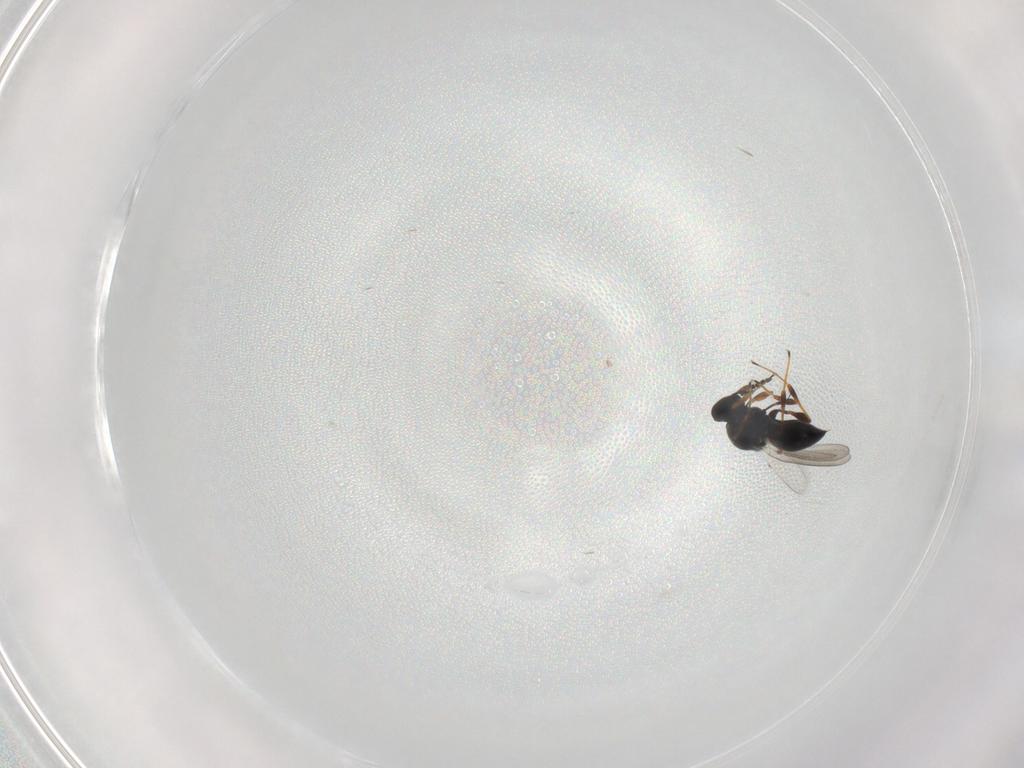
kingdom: Animalia
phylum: Arthropoda
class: Insecta
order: Hymenoptera
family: Platygastridae
